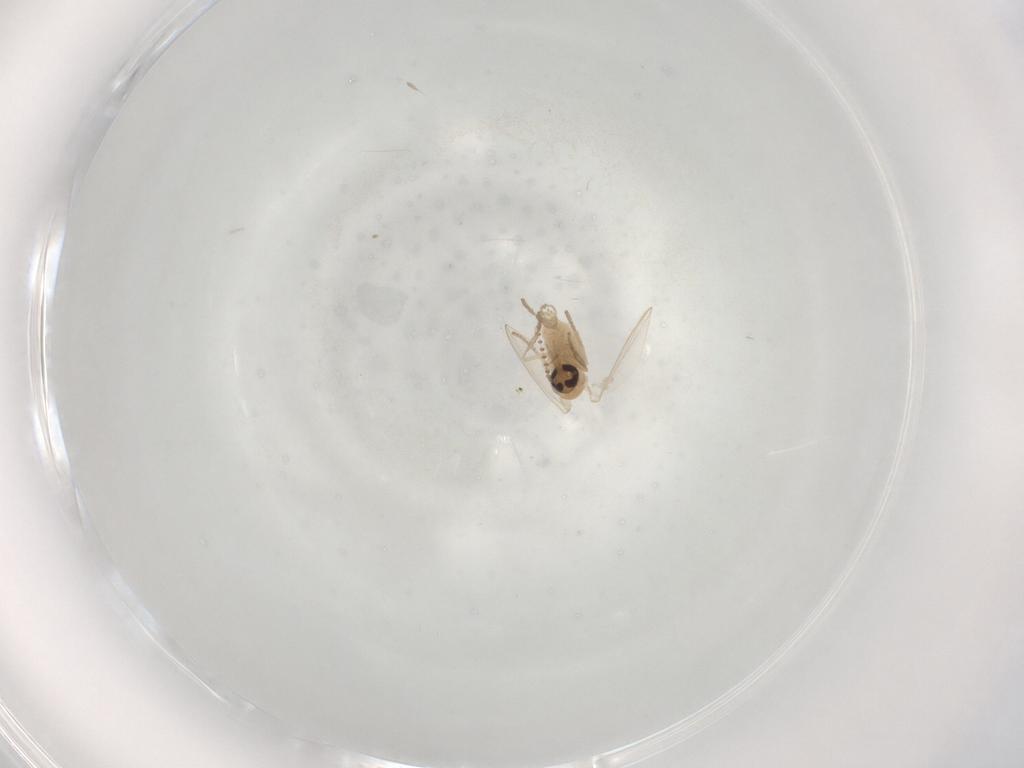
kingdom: Animalia
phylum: Arthropoda
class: Insecta
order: Diptera
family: Psychodidae
